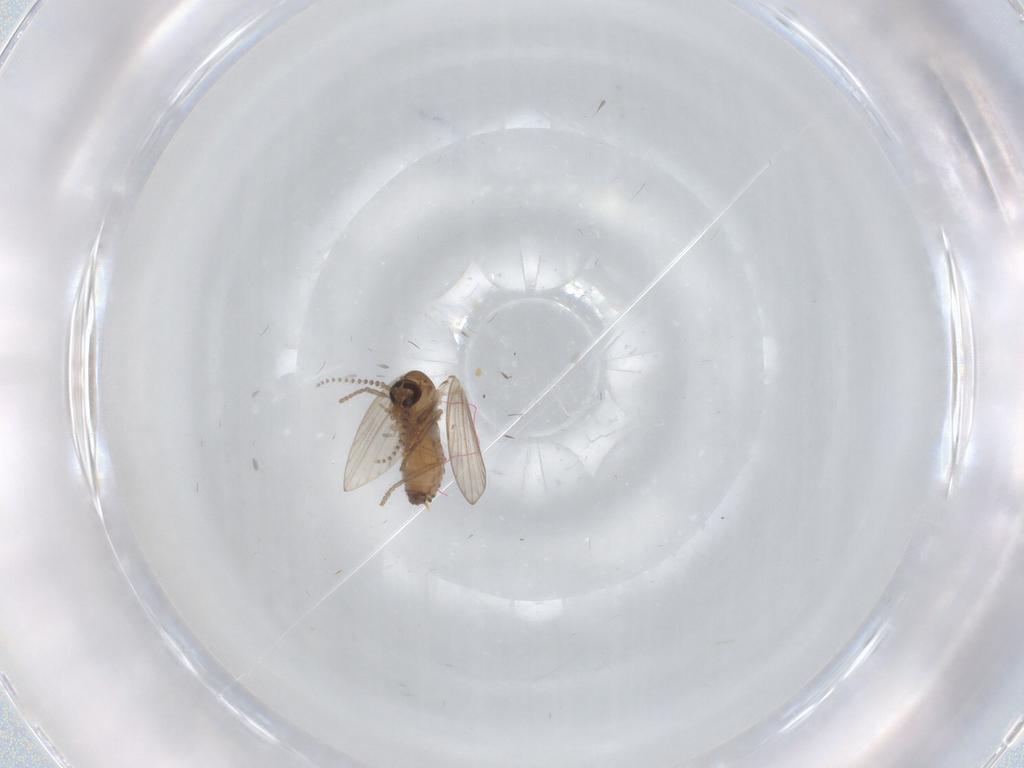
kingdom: Animalia
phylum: Arthropoda
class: Insecta
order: Diptera
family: Psychodidae
